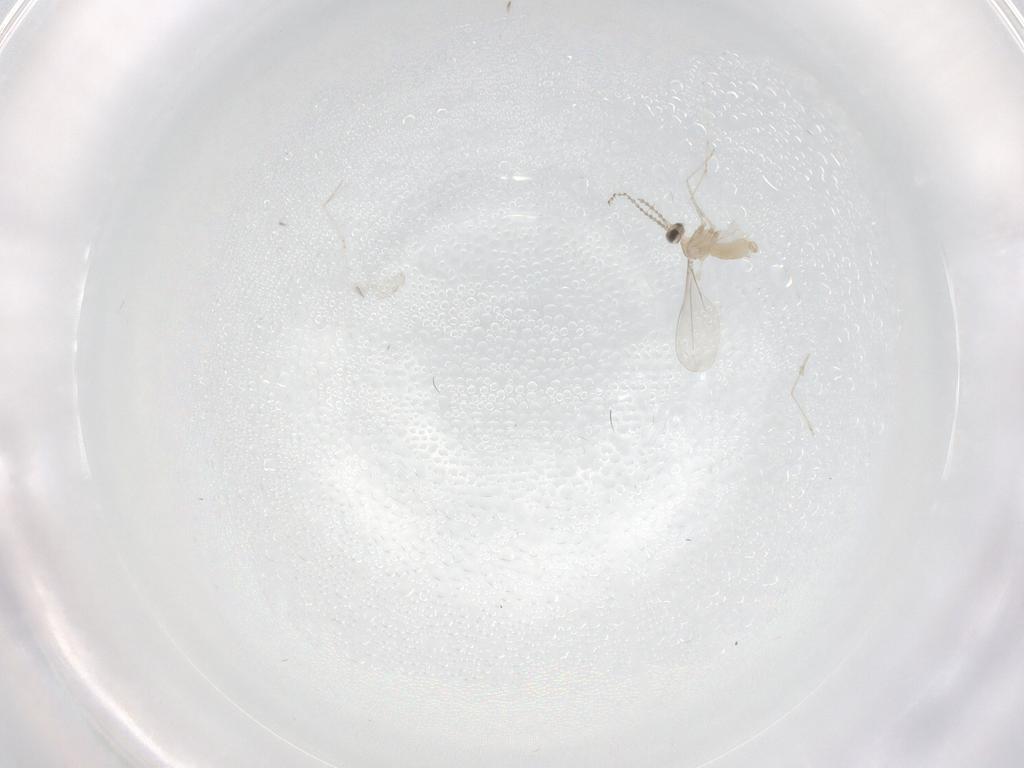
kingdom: Animalia
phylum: Arthropoda
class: Insecta
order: Diptera
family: Cecidomyiidae
